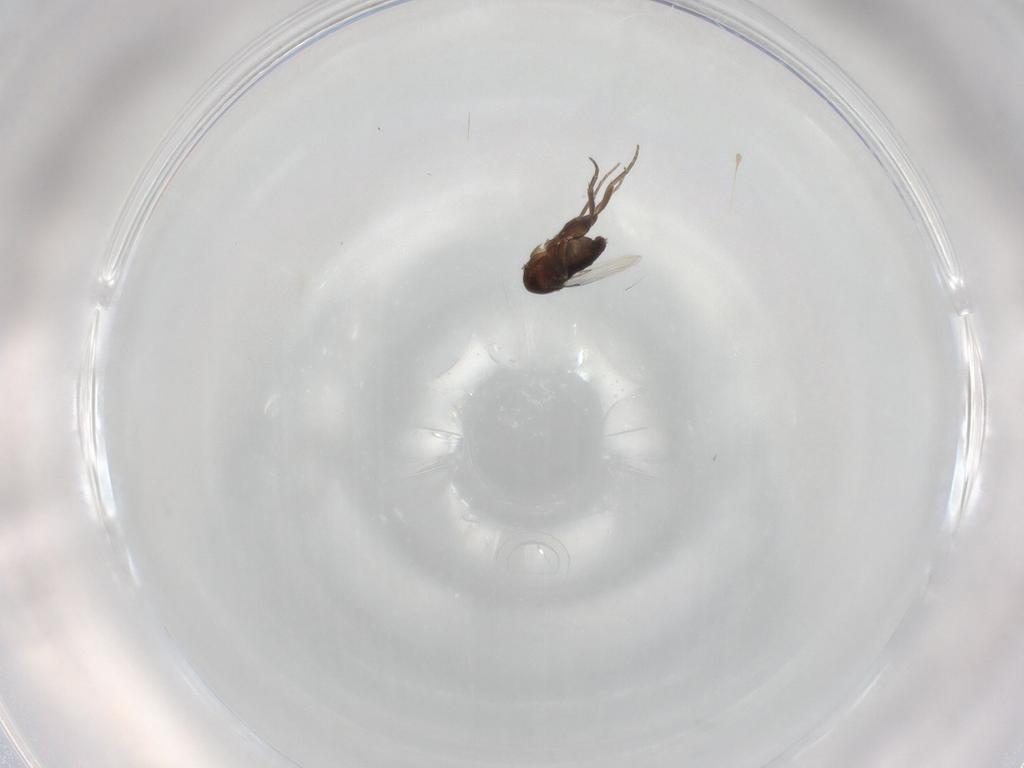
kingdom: Animalia
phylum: Arthropoda
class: Insecta
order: Diptera
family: Phoridae
